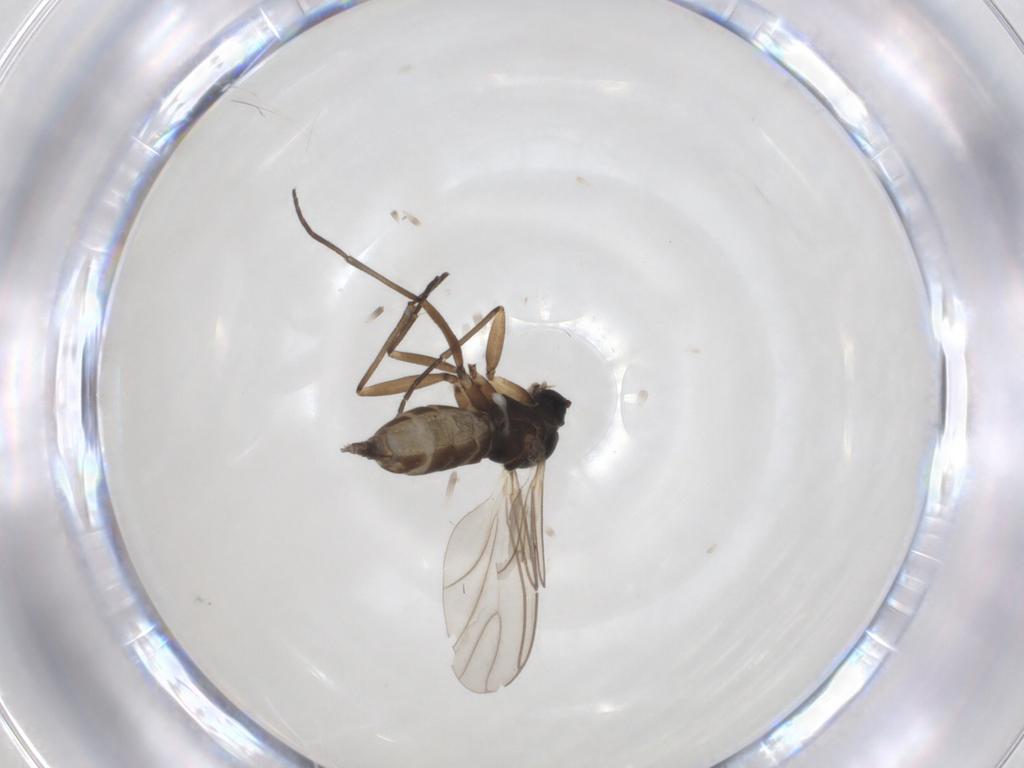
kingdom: Animalia
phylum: Arthropoda
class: Insecta
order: Diptera
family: Chironomidae
